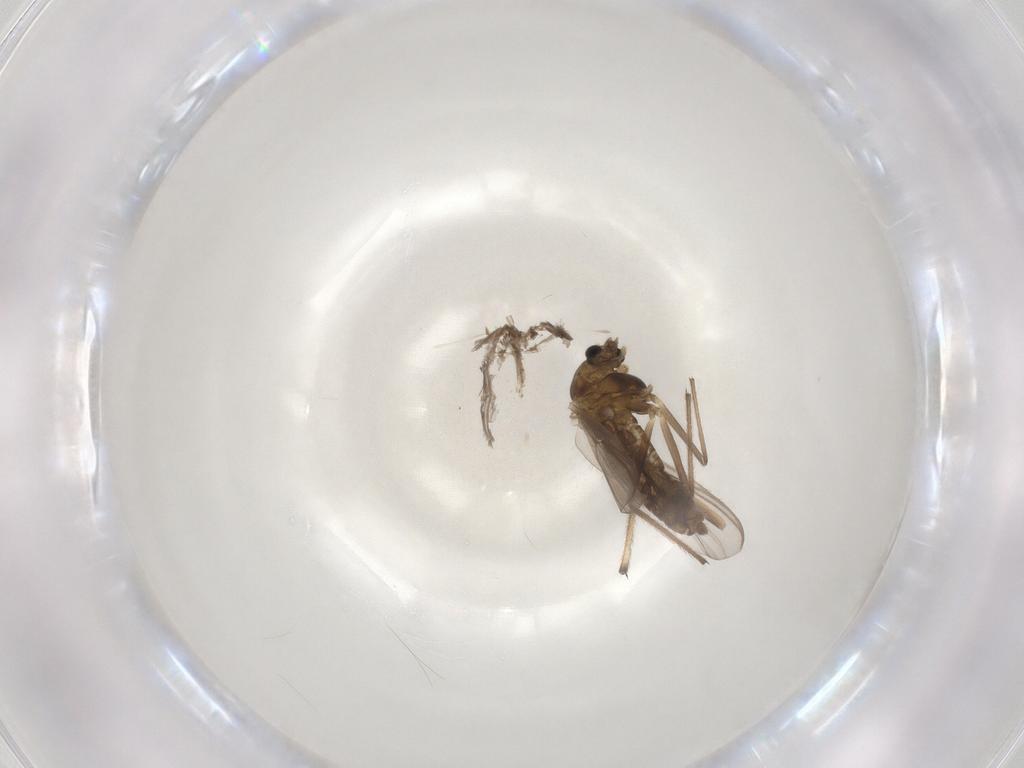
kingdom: Animalia
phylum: Arthropoda
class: Insecta
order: Diptera
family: Chironomidae
